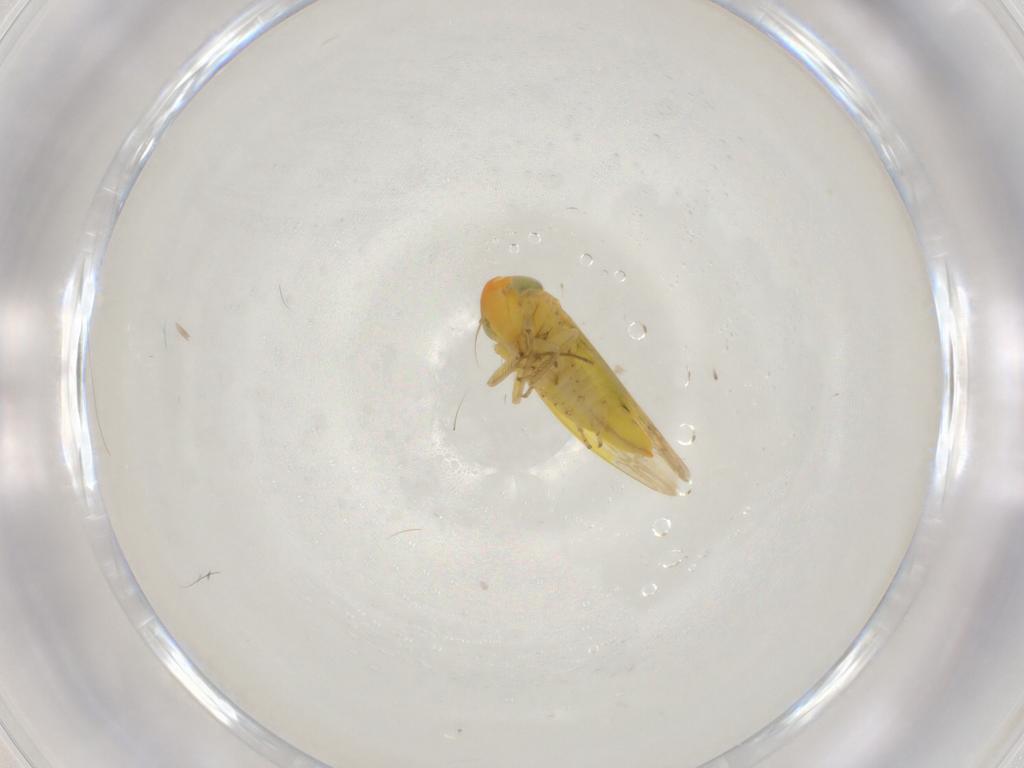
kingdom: Animalia
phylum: Arthropoda
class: Insecta
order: Hemiptera
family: Cicadellidae
